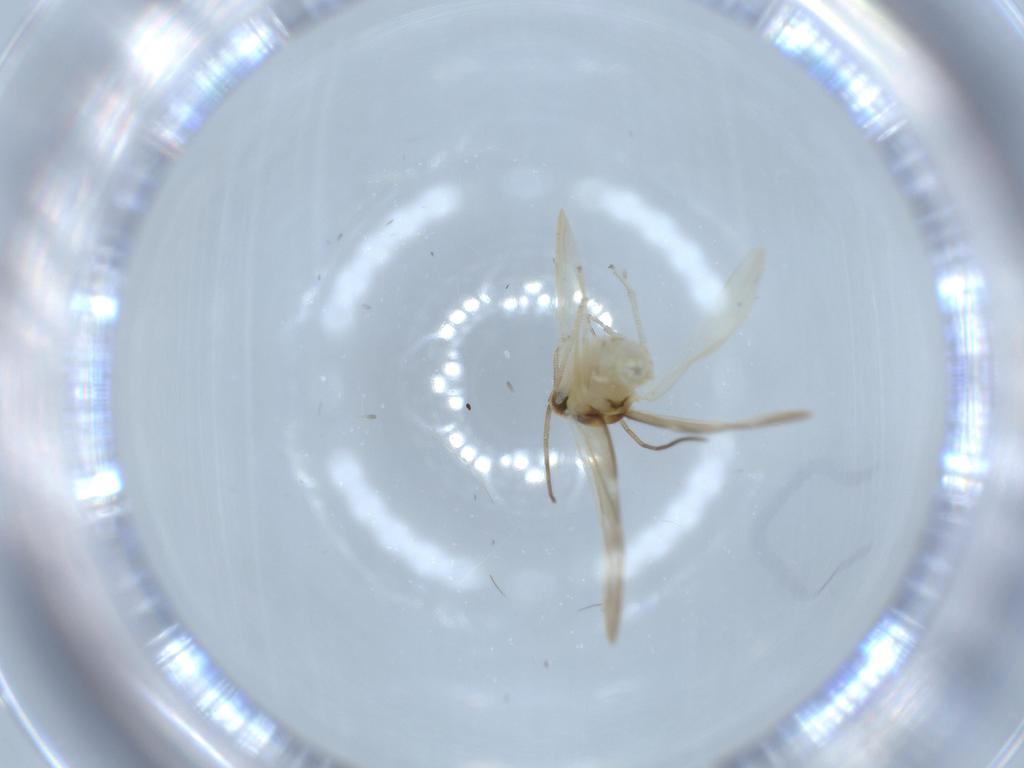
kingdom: Animalia
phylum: Arthropoda
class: Insecta
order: Psocodea
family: Caeciliusidae
